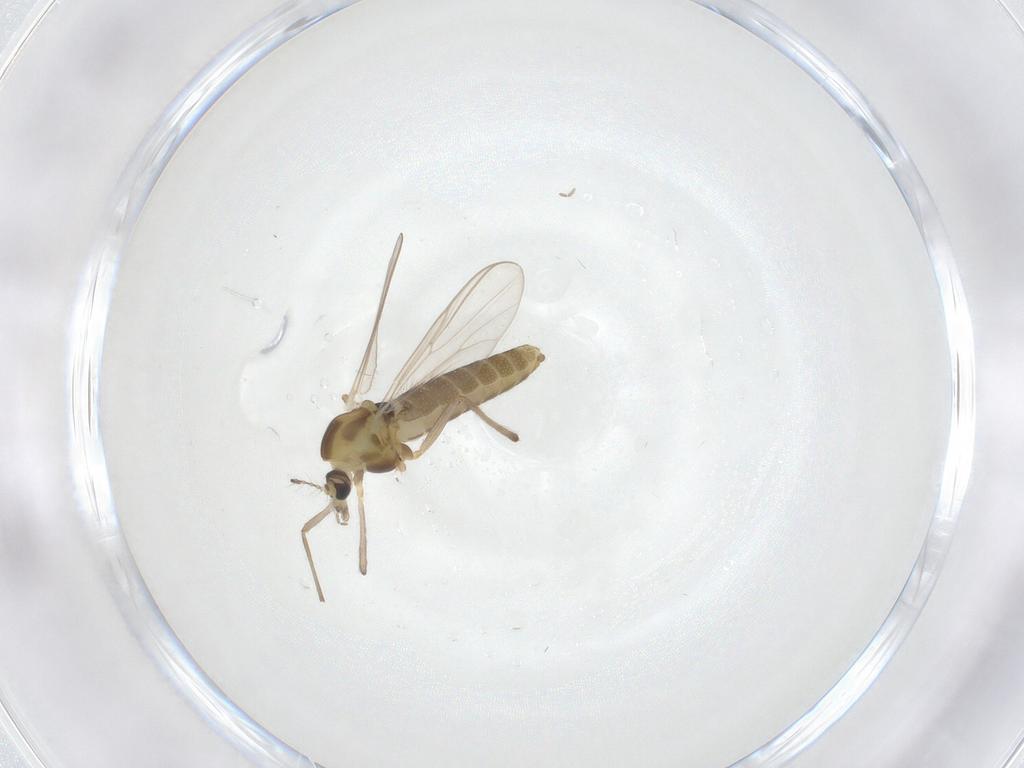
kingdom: Animalia
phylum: Arthropoda
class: Insecta
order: Diptera
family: Chironomidae
